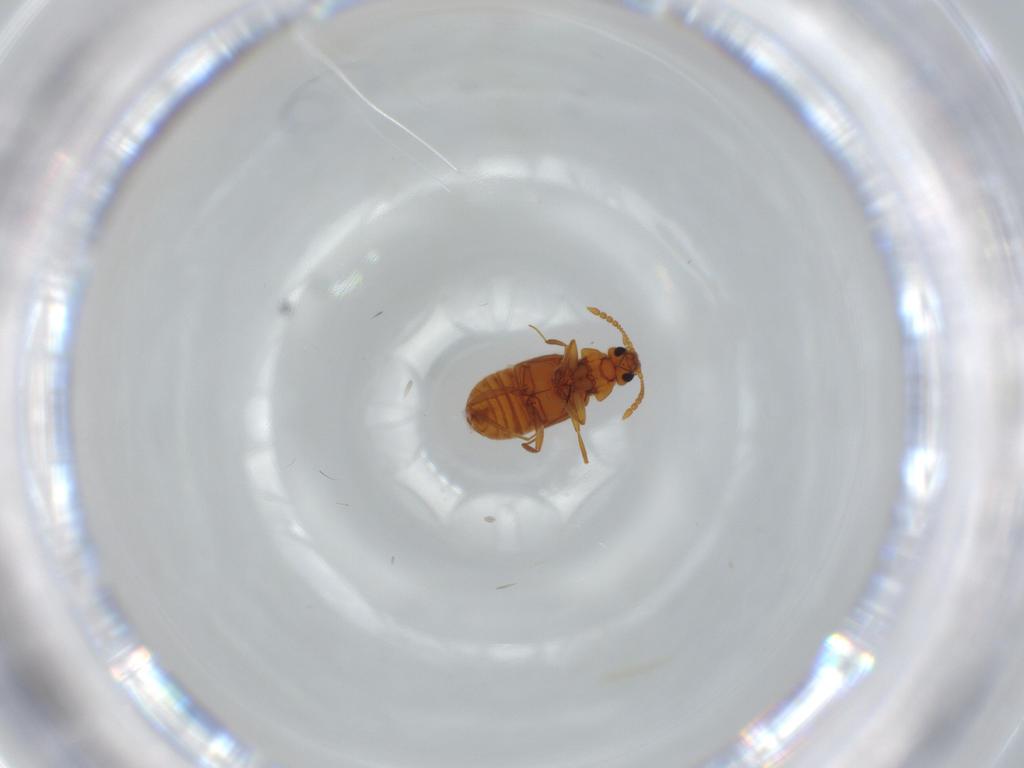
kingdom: Animalia
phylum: Arthropoda
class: Insecta
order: Coleoptera
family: Staphylinidae
